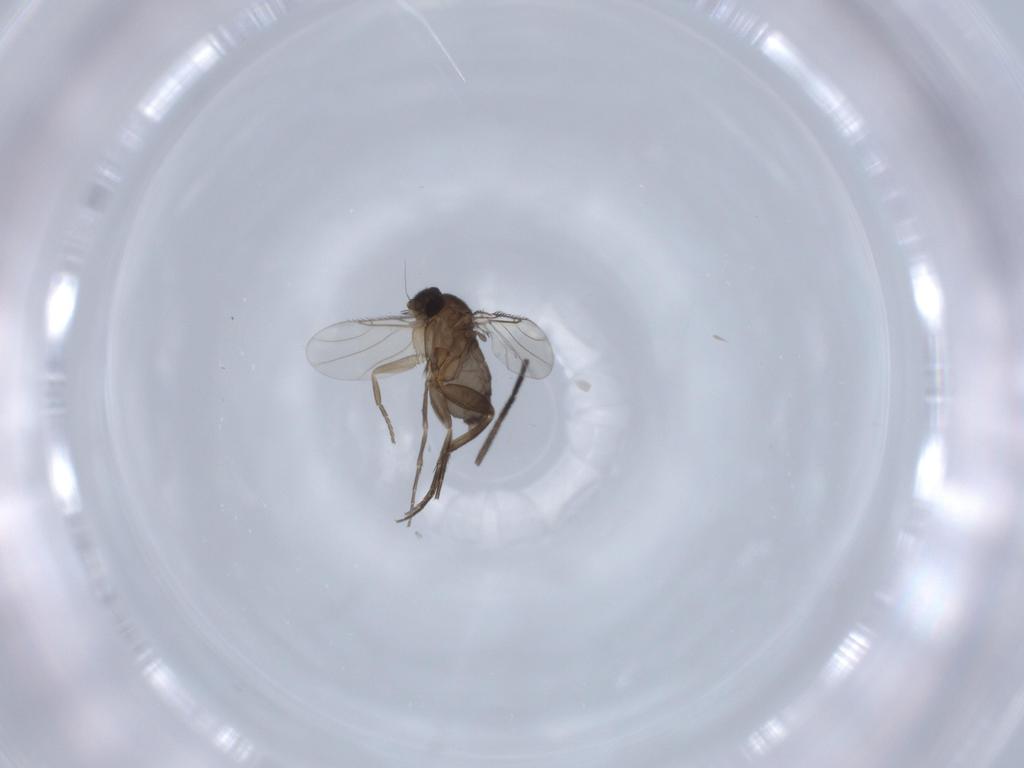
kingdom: Animalia
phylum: Arthropoda
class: Insecta
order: Diptera
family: Phoridae
